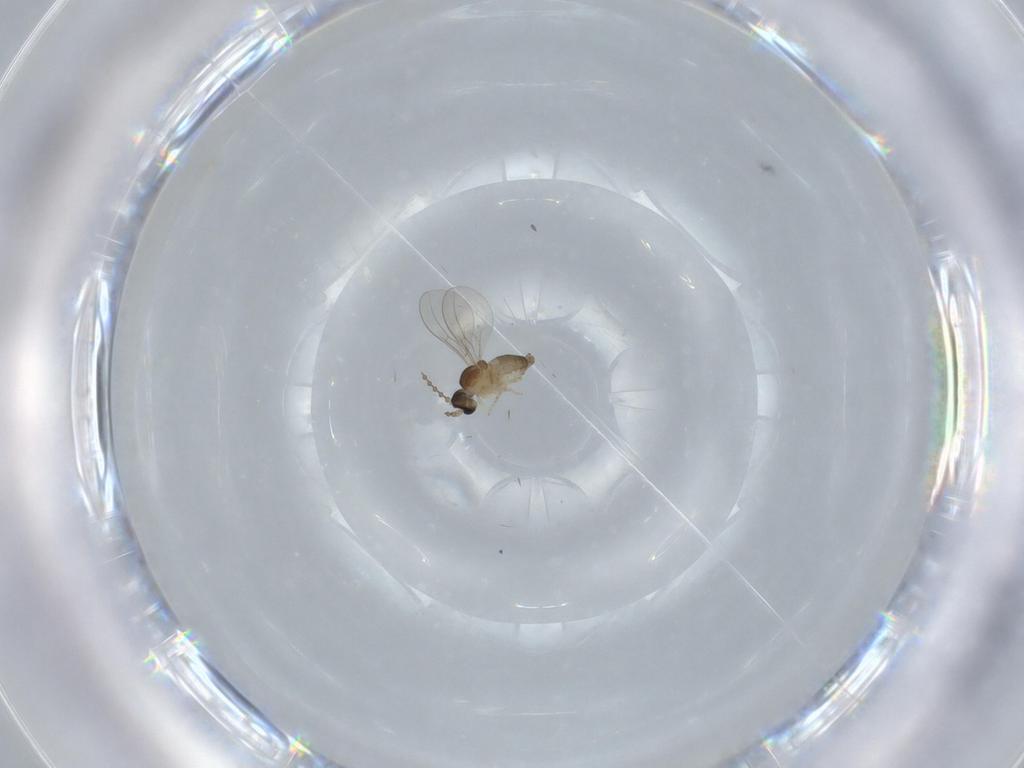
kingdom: Animalia
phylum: Arthropoda
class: Insecta
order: Diptera
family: Cecidomyiidae
